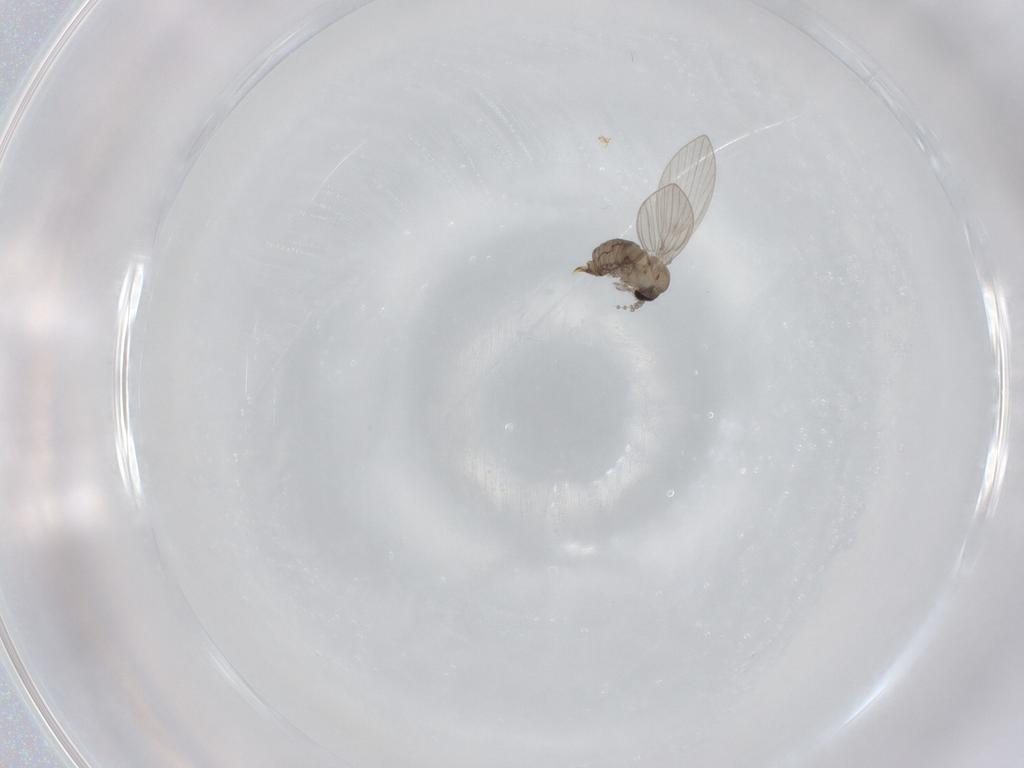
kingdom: Animalia
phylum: Arthropoda
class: Insecta
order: Diptera
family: Psychodidae
